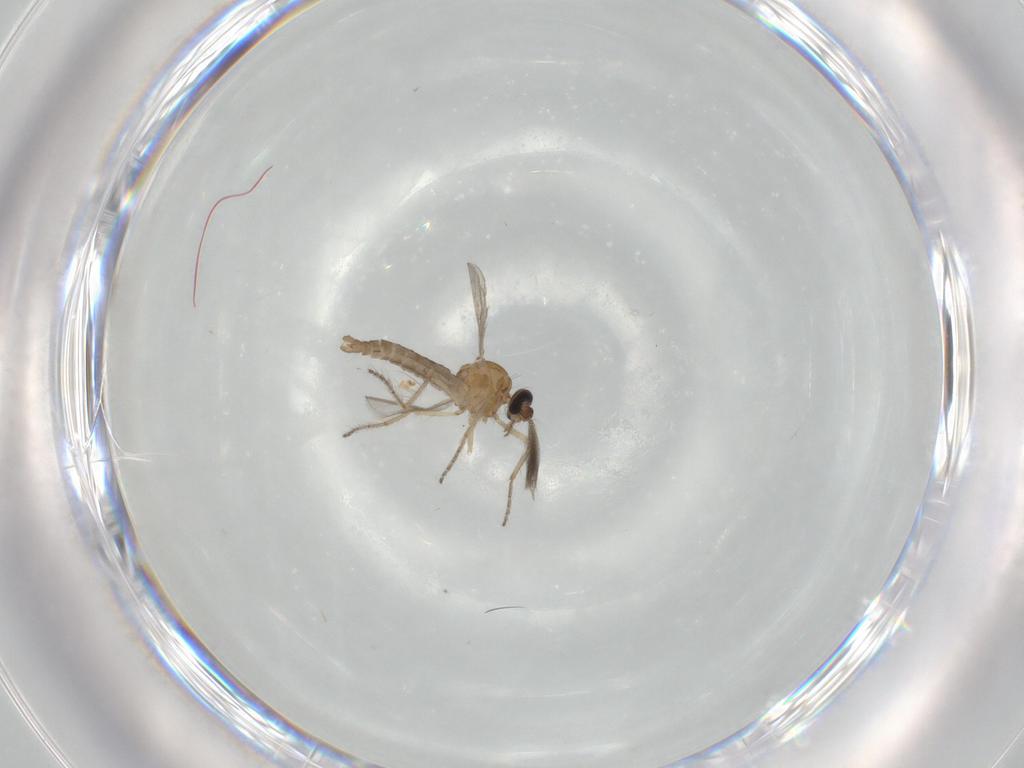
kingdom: Animalia
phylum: Arthropoda
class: Insecta
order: Diptera
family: Ceratopogonidae
